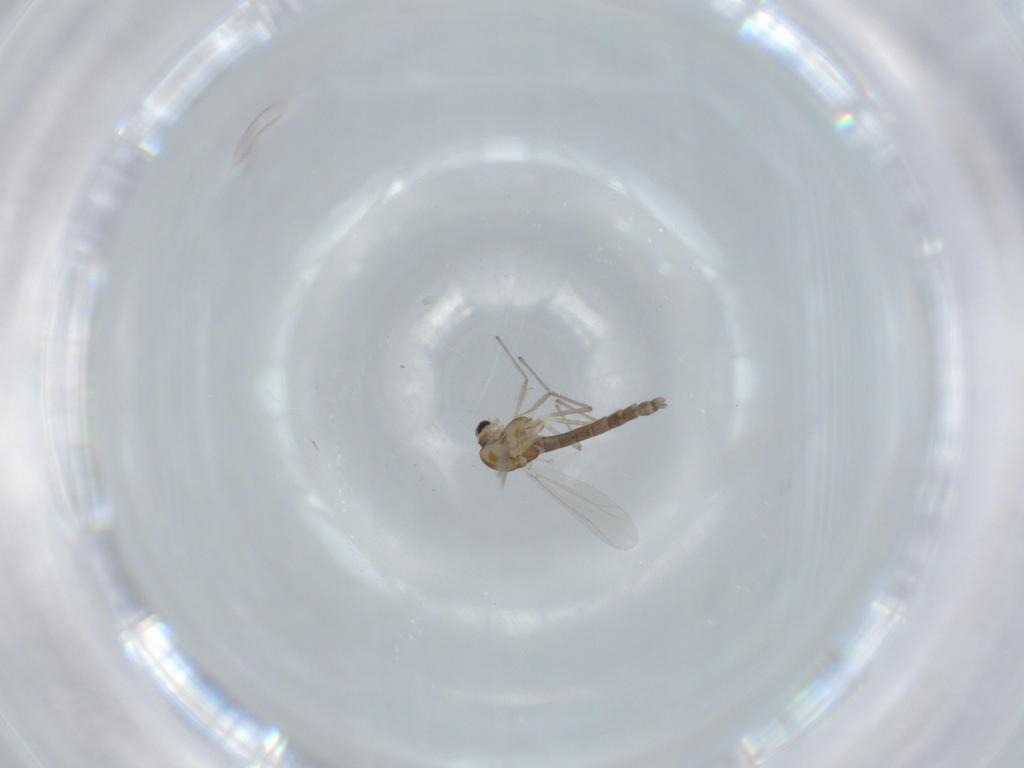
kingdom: Animalia
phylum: Arthropoda
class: Insecta
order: Diptera
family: Chironomidae
